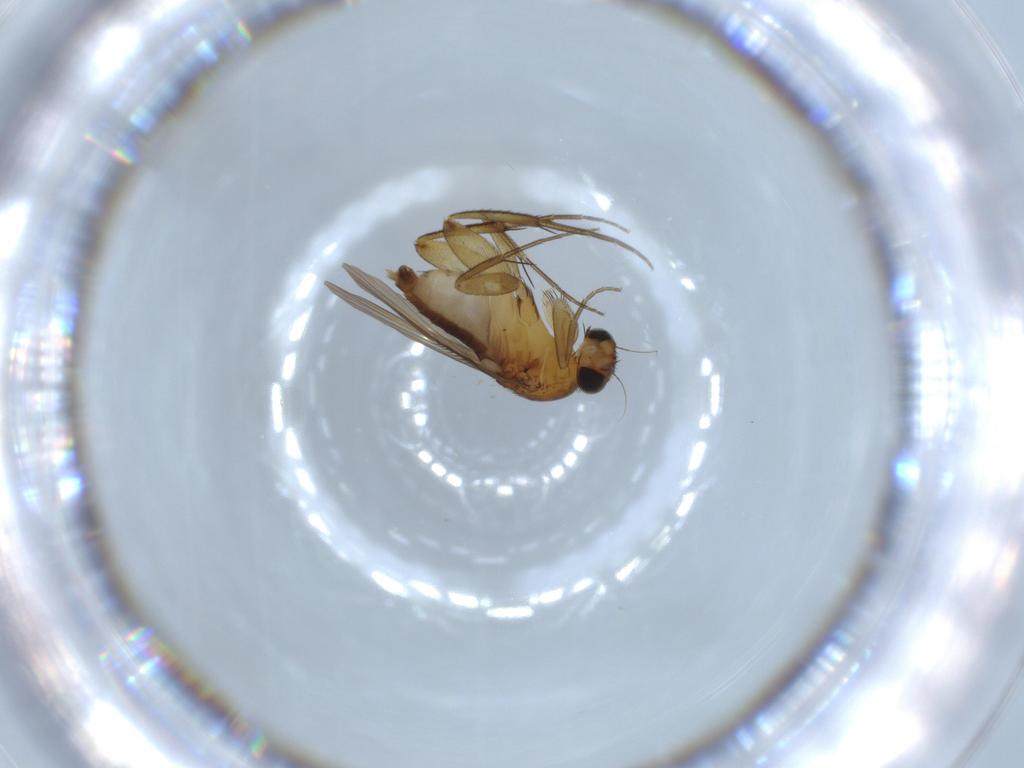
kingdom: Animalia
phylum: Arthropoda
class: Insecta
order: Diptera
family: Phoridae
